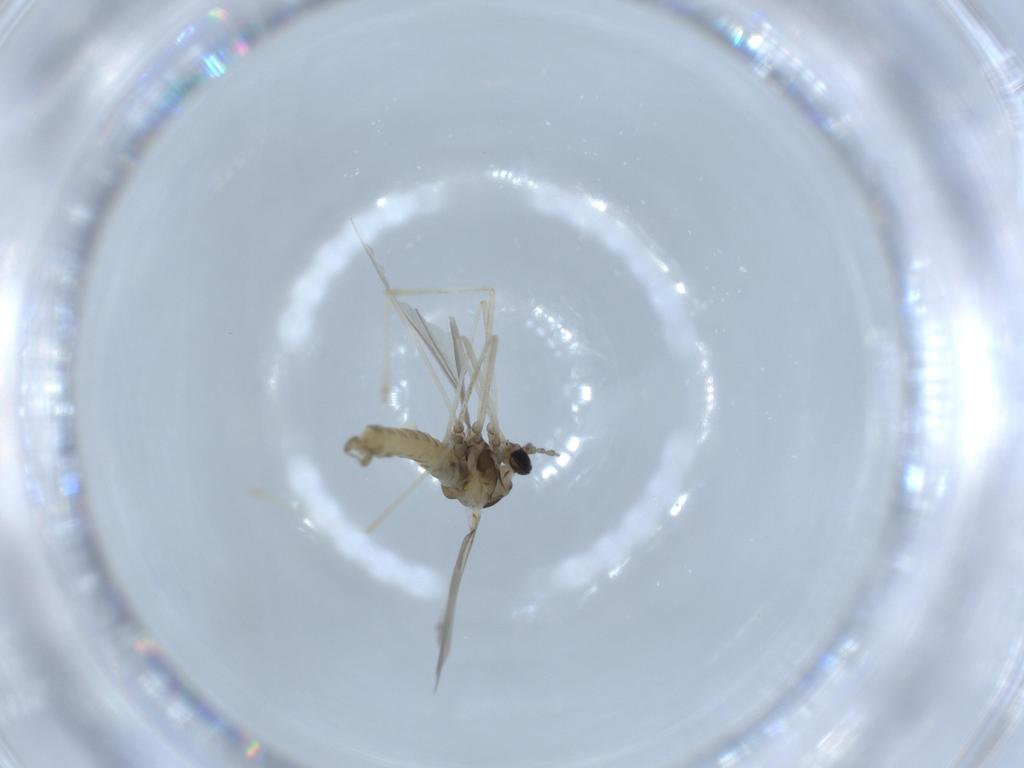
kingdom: Animalia
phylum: Arthropoda
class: Insecta
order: Diptera
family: Cecidomyiidae
